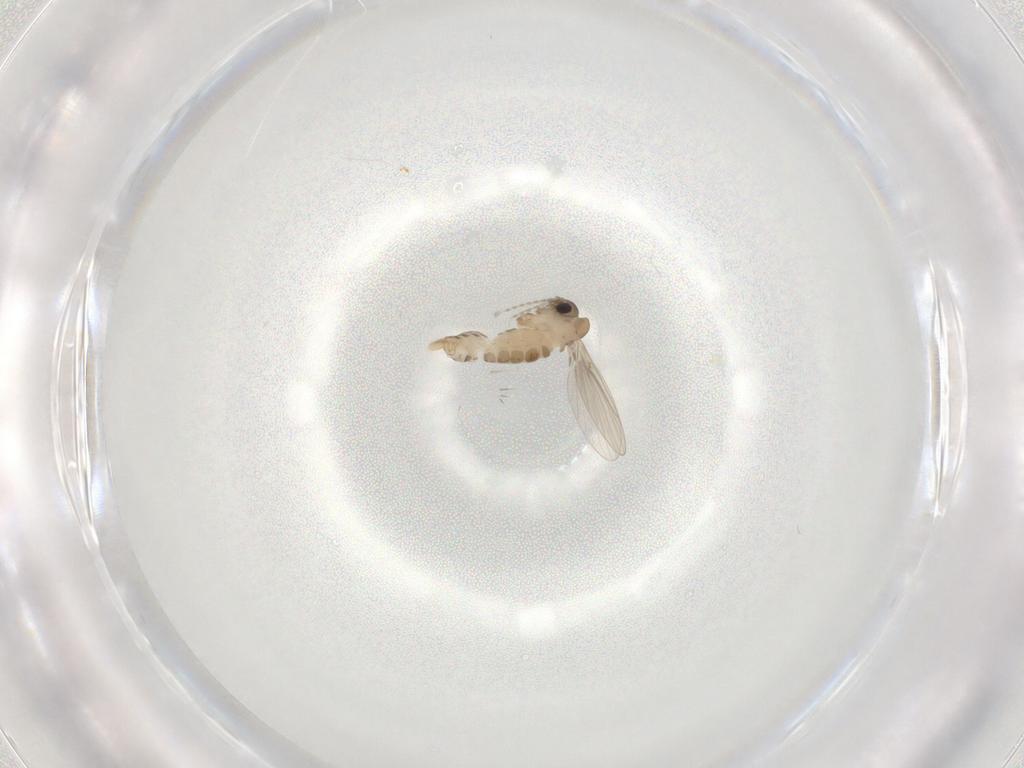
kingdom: Animalia
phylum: Arthropoda
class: Insecta
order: Diptera
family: Psychodidae
